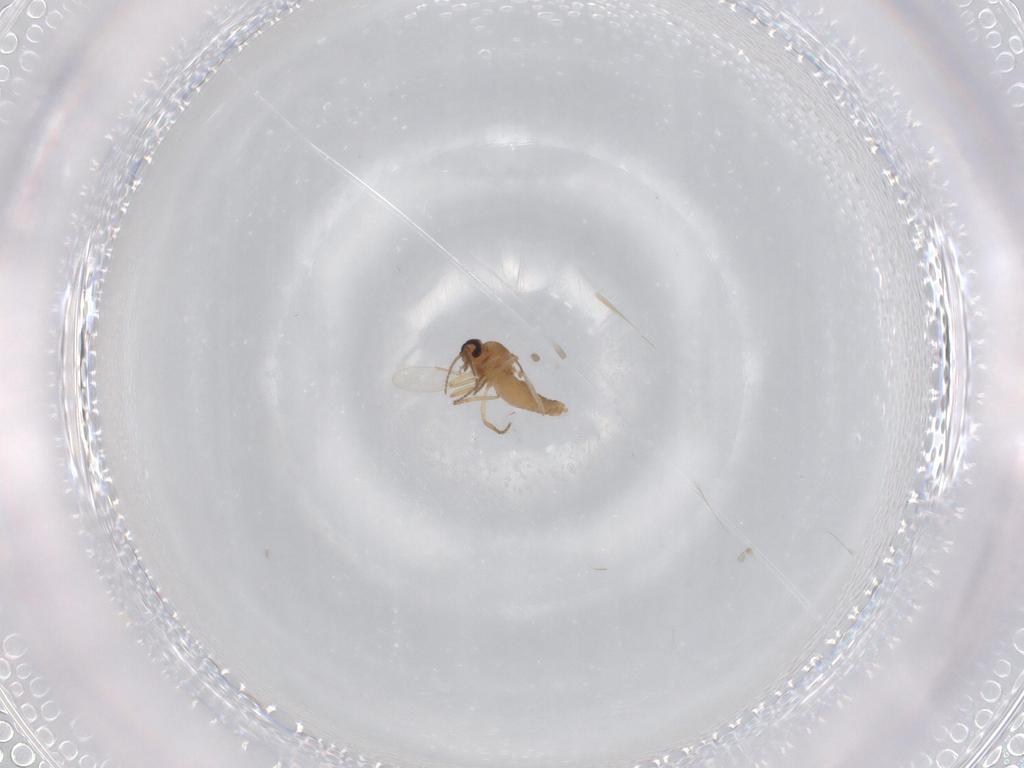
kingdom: Animalia
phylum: Arthropoda
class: Insecta
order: Diptera
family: Ceratopogonidae
